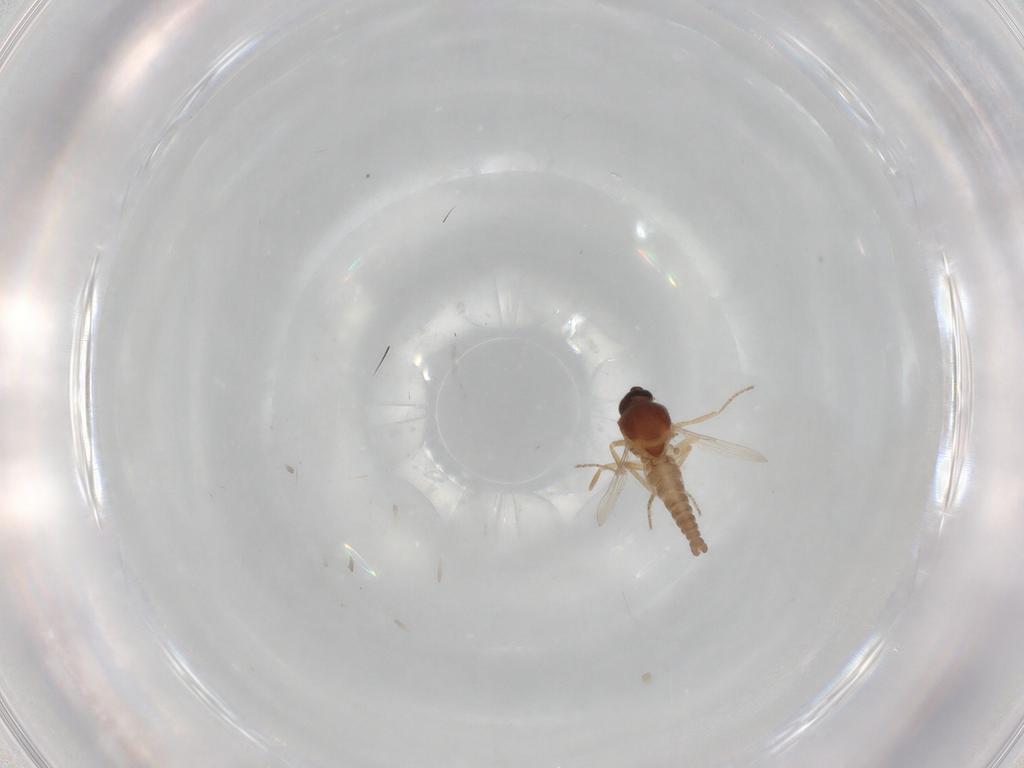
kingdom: Animalia
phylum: Arthropoda
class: Insecta
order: Diptera
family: Ceratopogonidae
